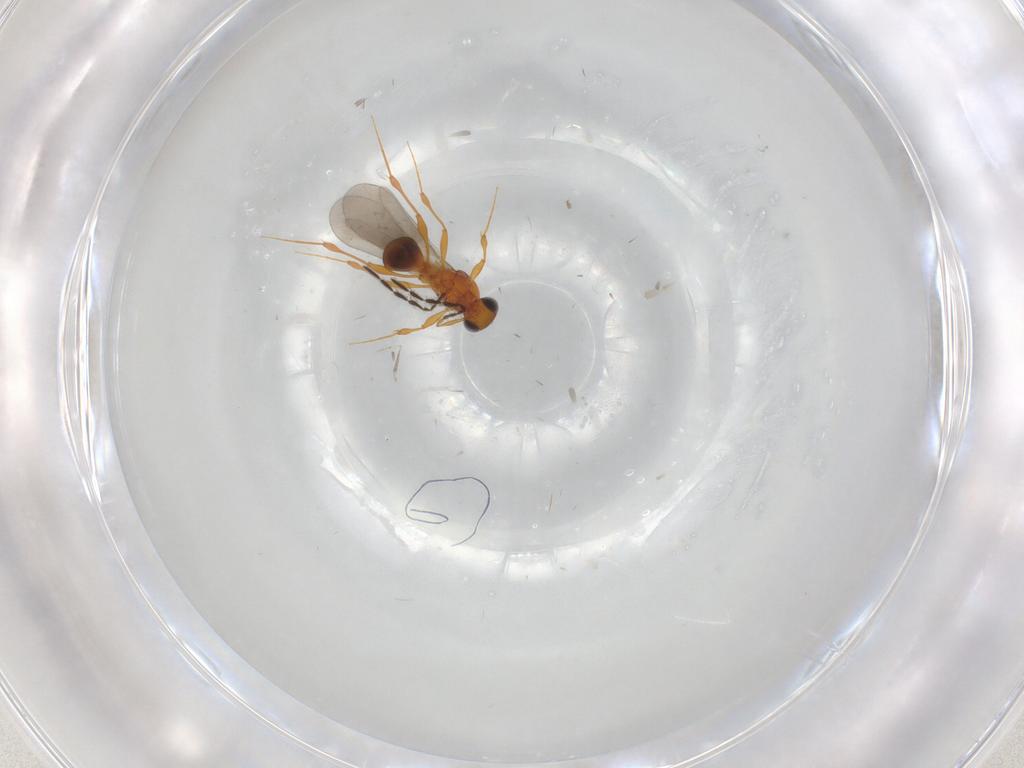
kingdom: Animalia
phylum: Arthropoda
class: Insecta
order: Hymenoptera
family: Platygastridae
